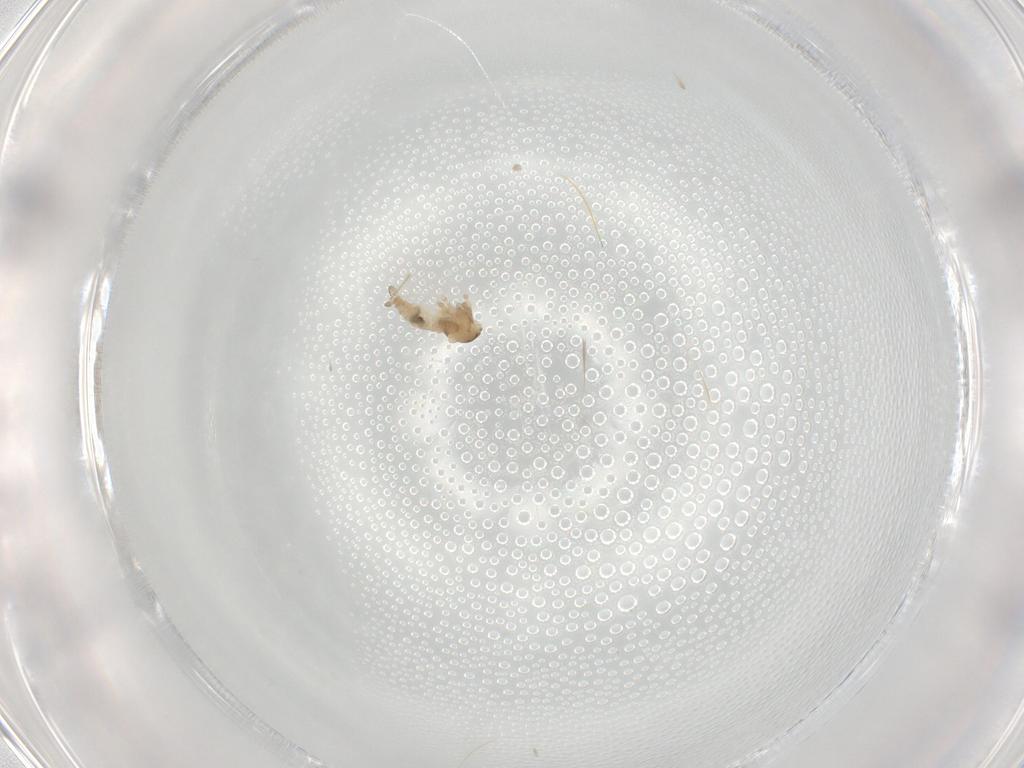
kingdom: Animalia
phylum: Arthropoda
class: Insecta
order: Diptera
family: Cecidomyiidae
